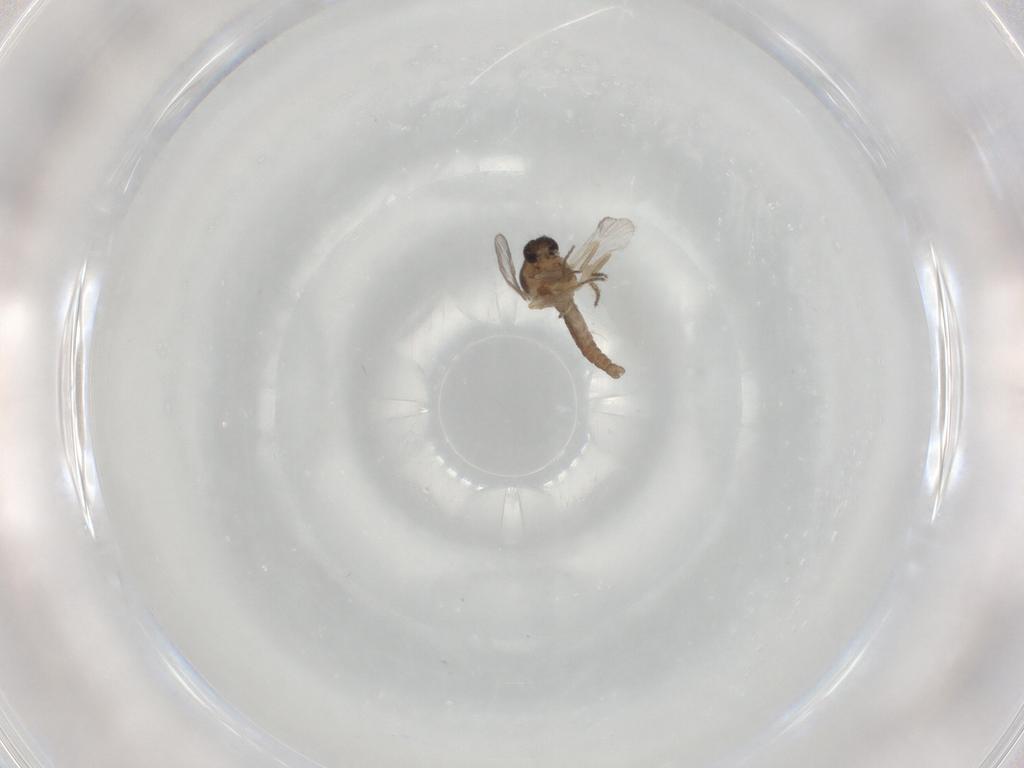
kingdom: Animalia
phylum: Arthropoda
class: Insecta
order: Diptera
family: Ceratopogonidae
